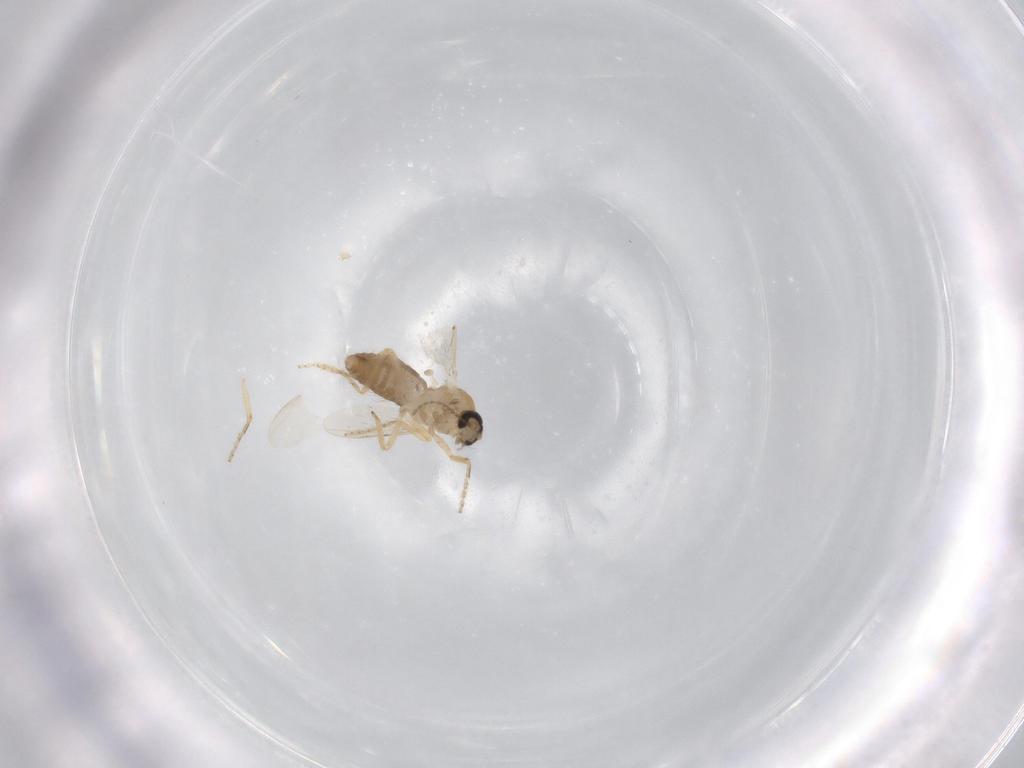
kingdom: Animalia
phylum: Arthropoda
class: Insecta
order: Diptera
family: Ceratopogonidae
